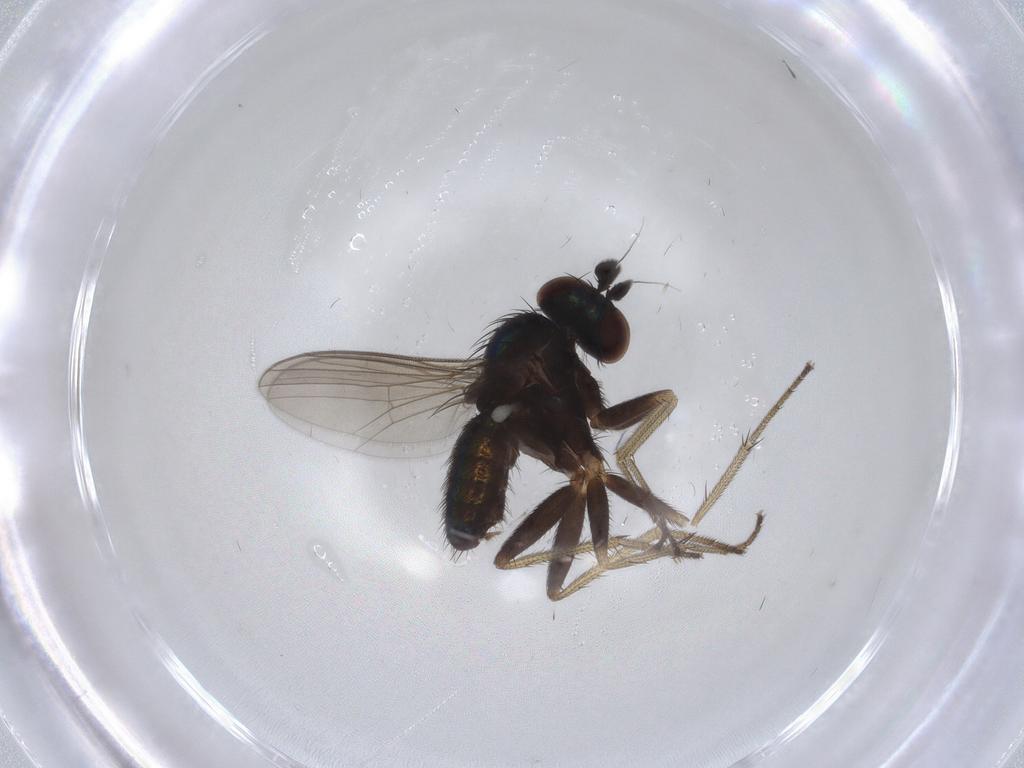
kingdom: Animalia
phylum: Arthropoda
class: Insecta
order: Diptera
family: Dolichopodidae
